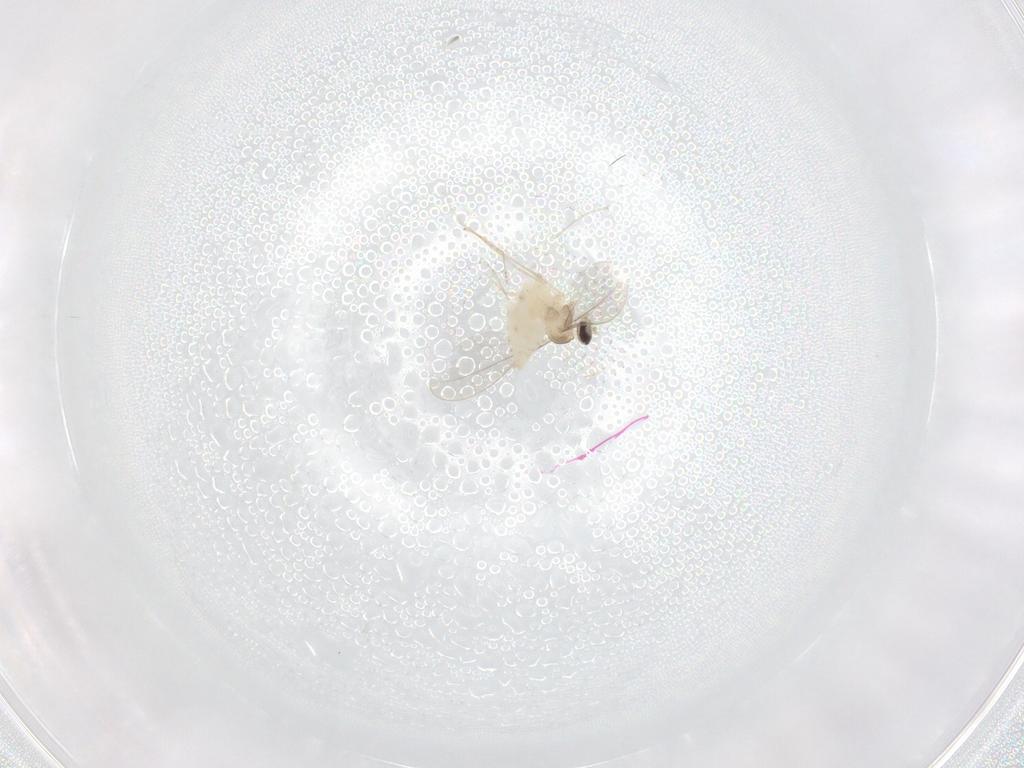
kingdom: Animalia
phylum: Arthropoda
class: Insecta
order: Diptera
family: Cecidomyiidae
